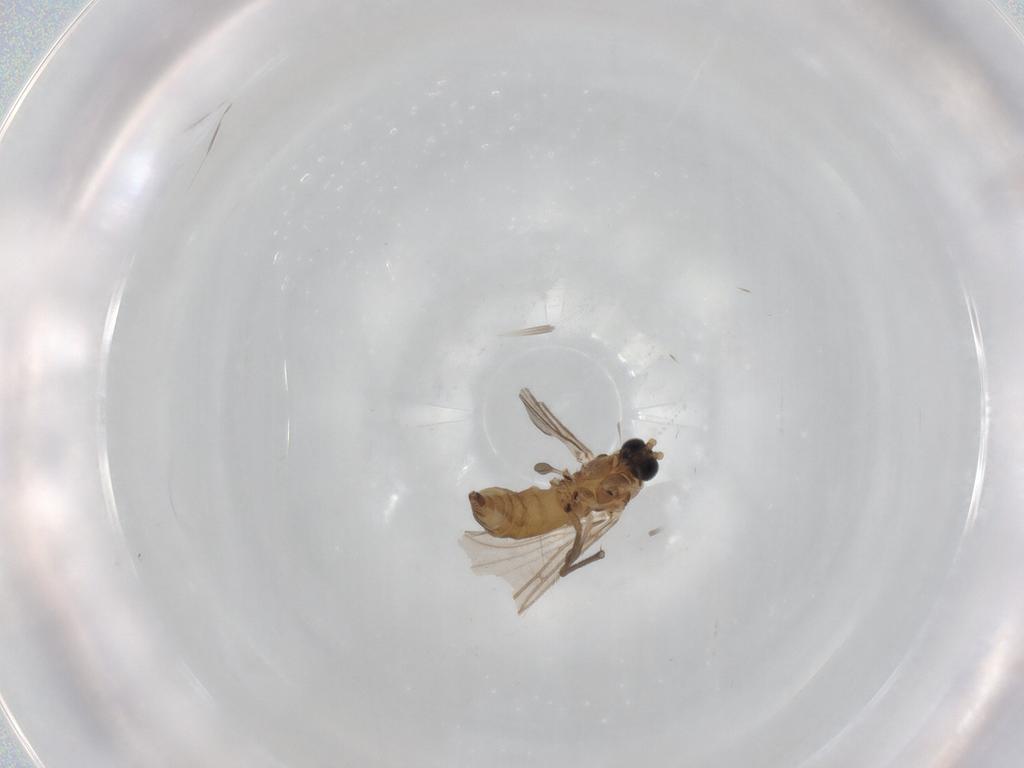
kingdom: Animalia
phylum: Arthropoda
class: Insecta
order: Diptera
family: Sciaridae
